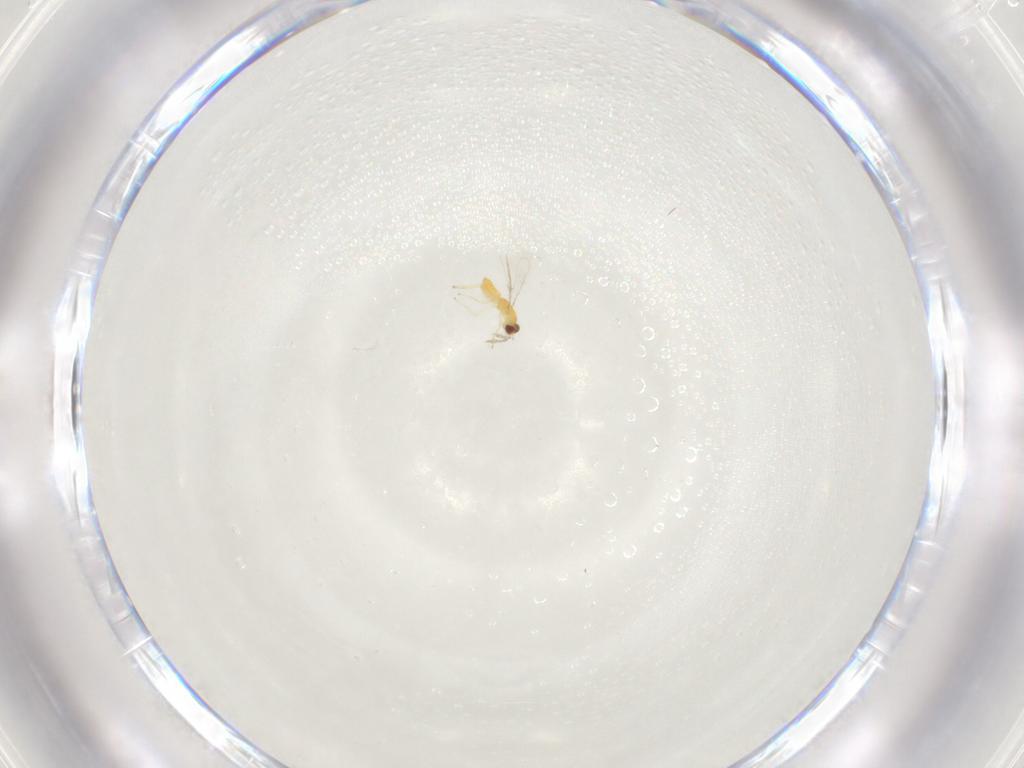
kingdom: Animalia
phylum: Arthropoda
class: Insecta
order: Hymenoptera
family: Eulophidae
